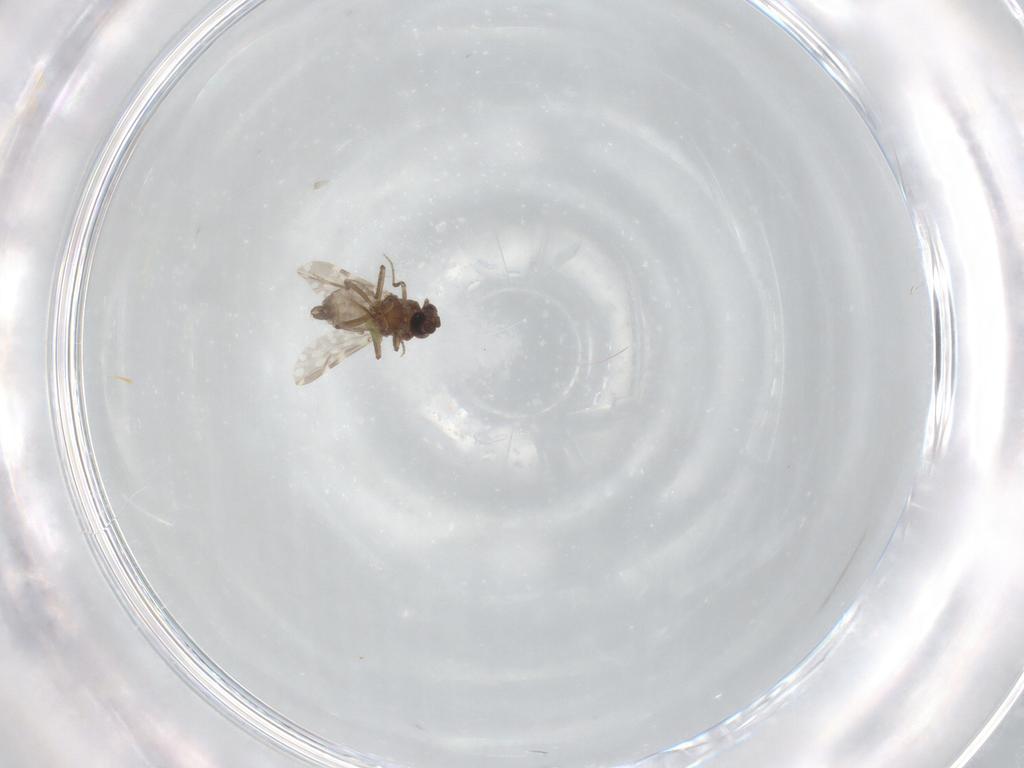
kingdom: Animalia
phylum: Arthropoda
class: Insecta
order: Diptera
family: Ceratopogonidae
